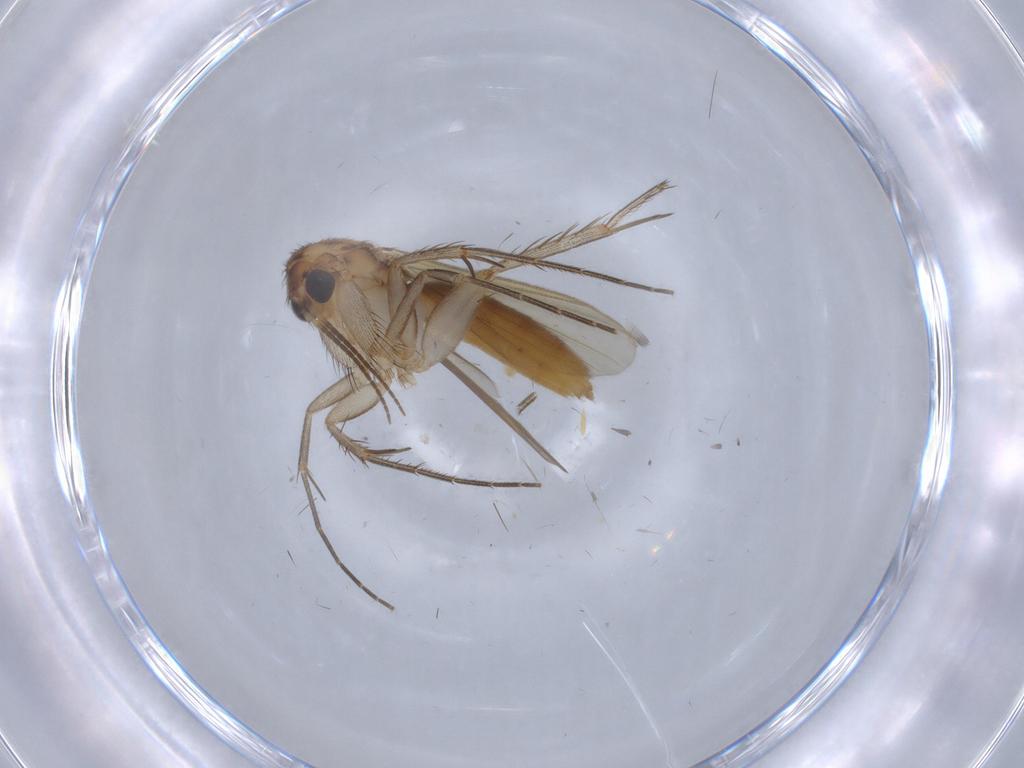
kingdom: Animalia
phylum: Arthropoda
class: Insecta
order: Diptera
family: Mycetophilidae
